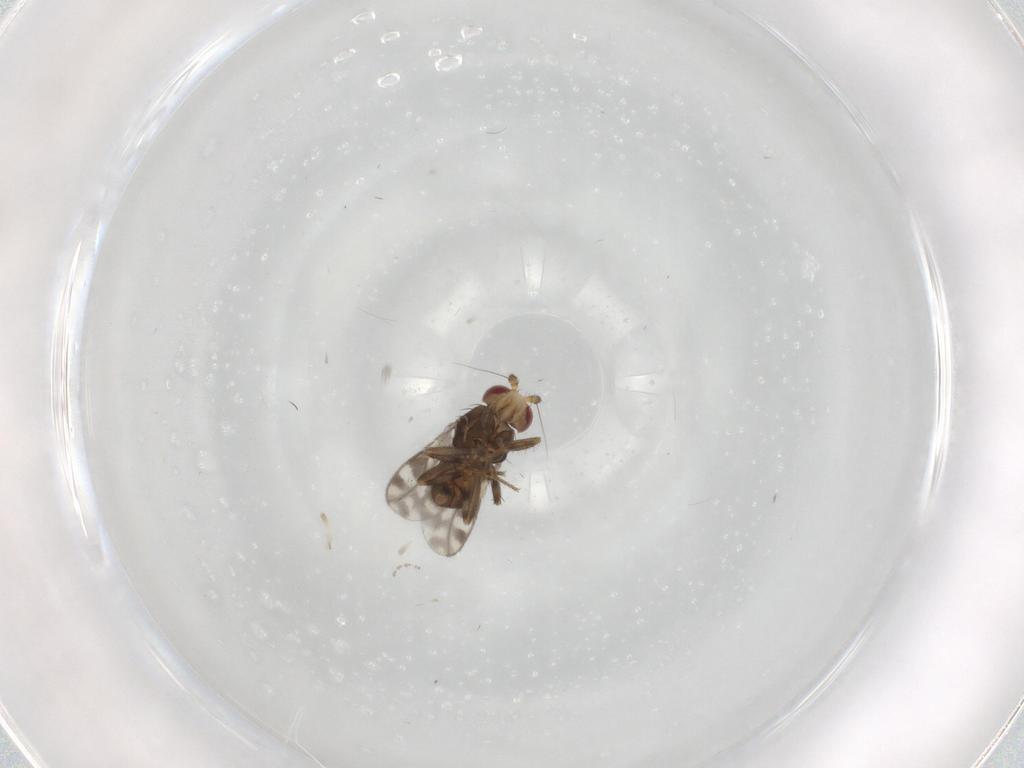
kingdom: Animalia
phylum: Arthropoda
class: Insecta
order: Diptera
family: Sphaeroceridae
